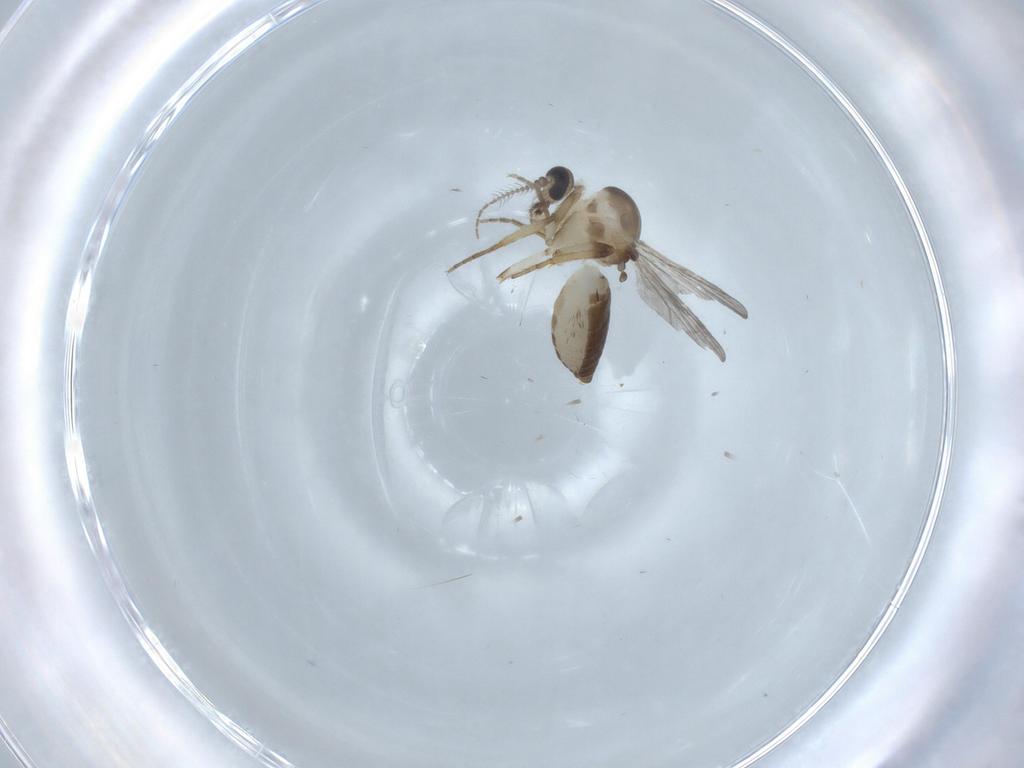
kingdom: Animalia
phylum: Arthropoda
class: Insecta
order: Diptera
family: Ceratopogonidae
